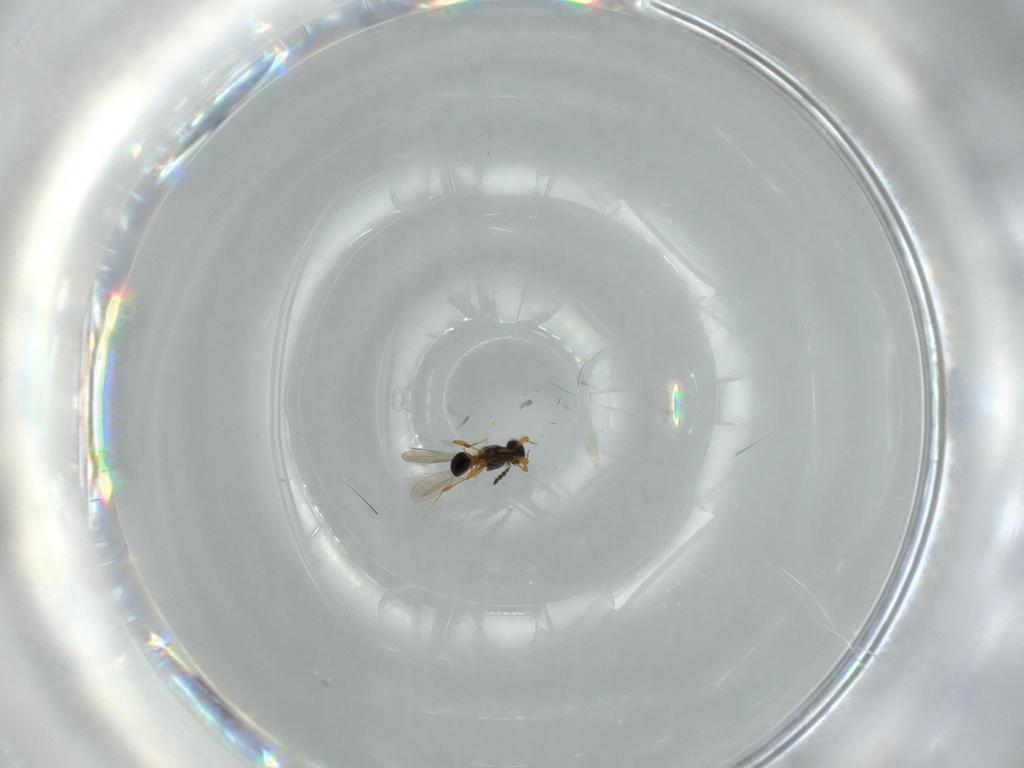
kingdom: Animalia
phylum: Arthropoda
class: Insecta
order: Hymenoptera
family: Platygastridae
